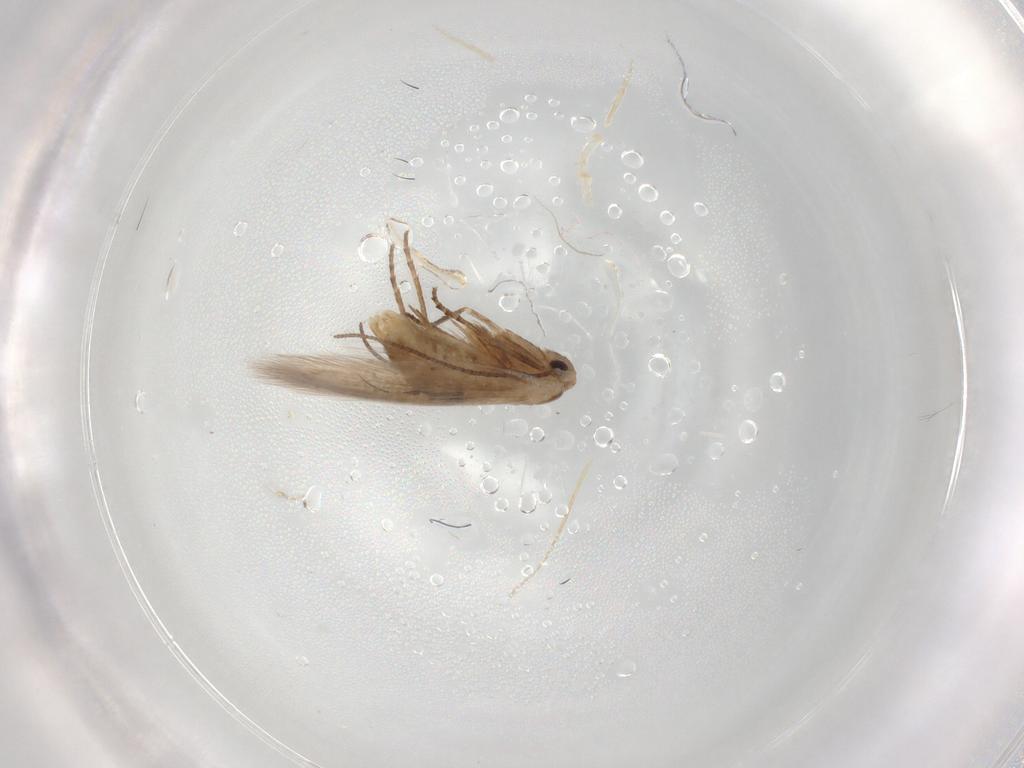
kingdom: Animalia
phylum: Arthropoda
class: Insecta
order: Lepidoptera
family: Bucculatricidae
